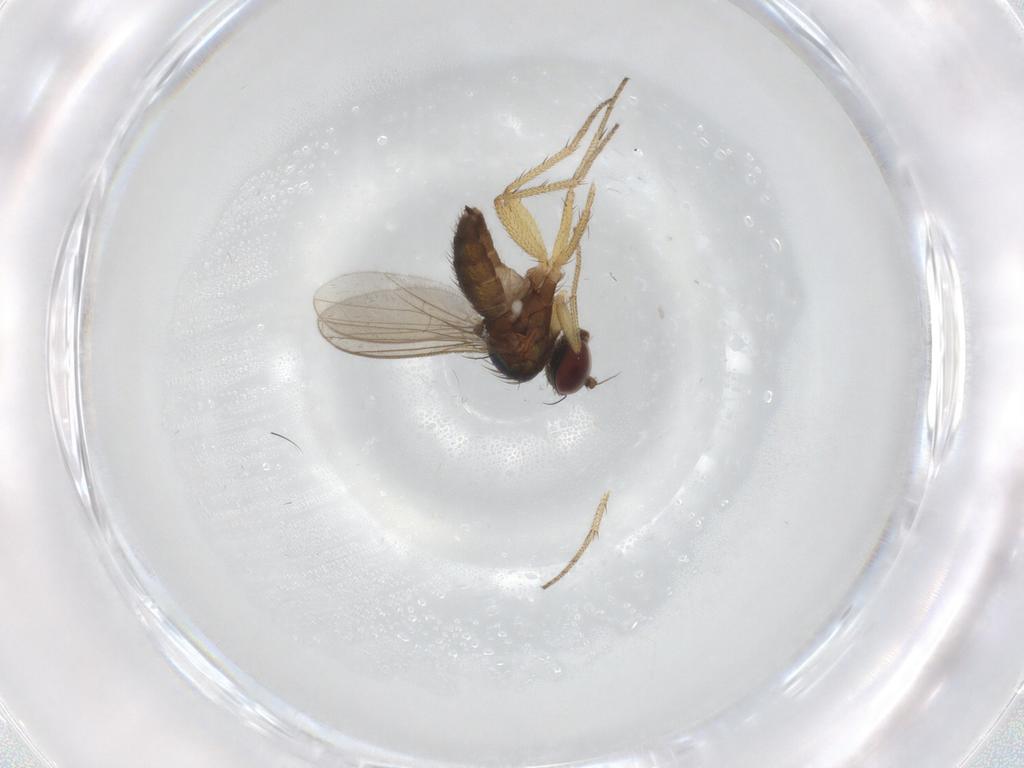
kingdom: Animalia
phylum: Arthropoda
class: Insecta
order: Diptera
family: Dolichopodidae
